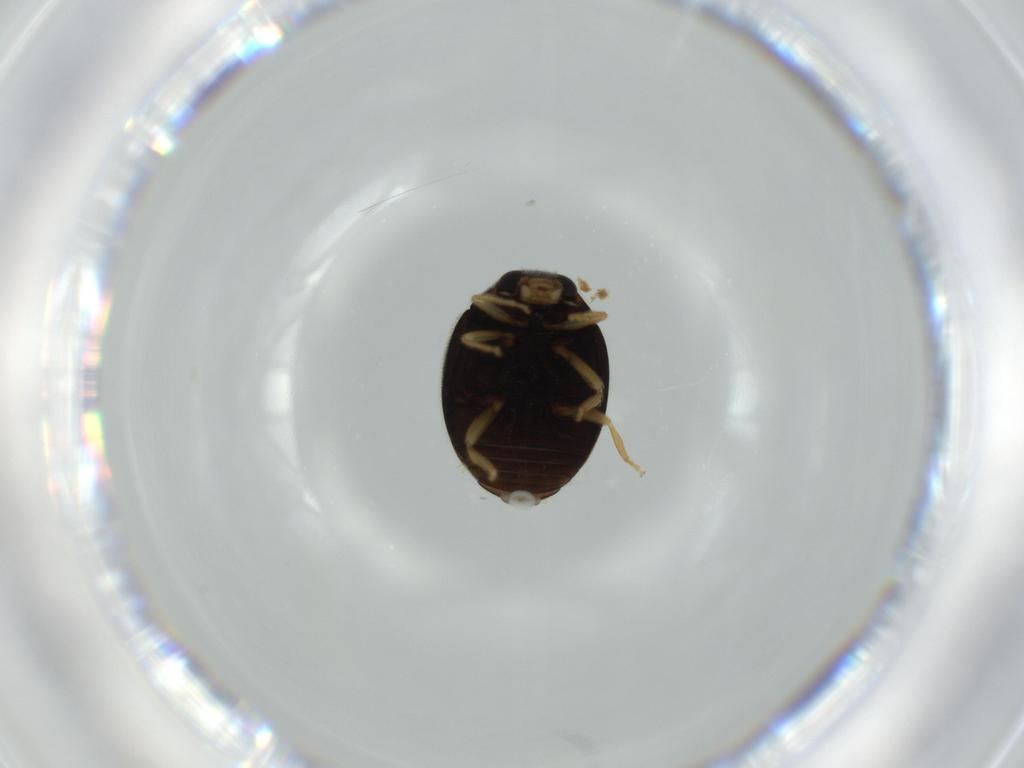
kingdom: Animalia
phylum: Arthropoda
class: Insecta
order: Coleoptera
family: Coccinellidae
